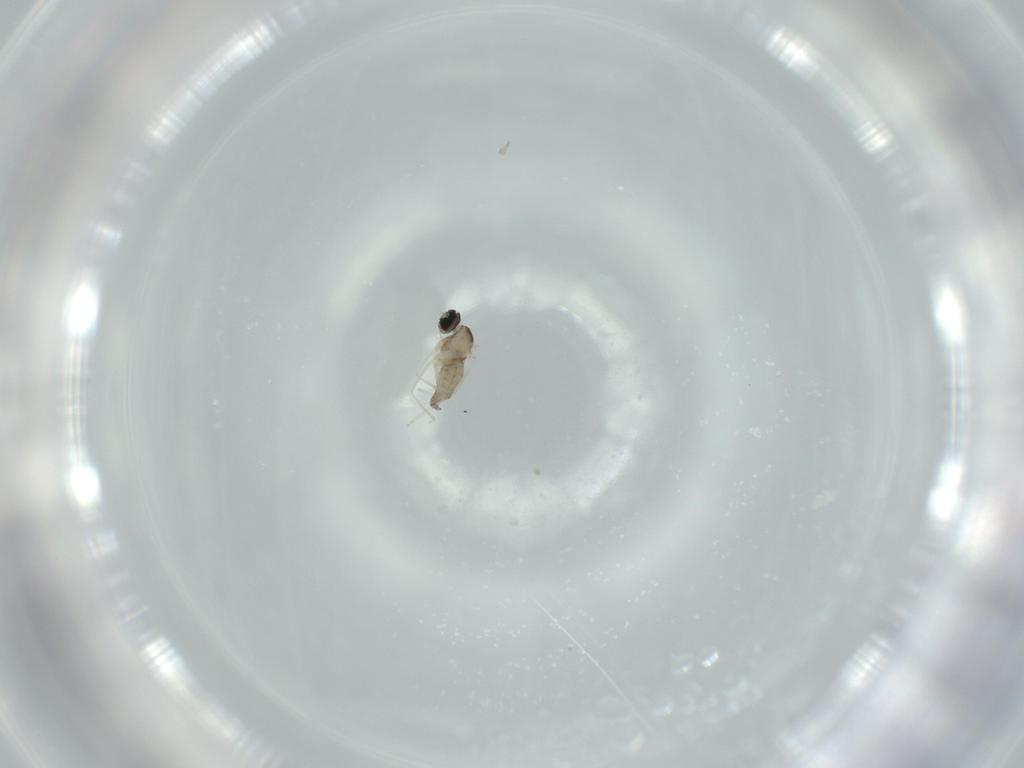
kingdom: Animalia
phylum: Arthropoda
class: Insecta
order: Diptera
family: Cecidomyiidae
